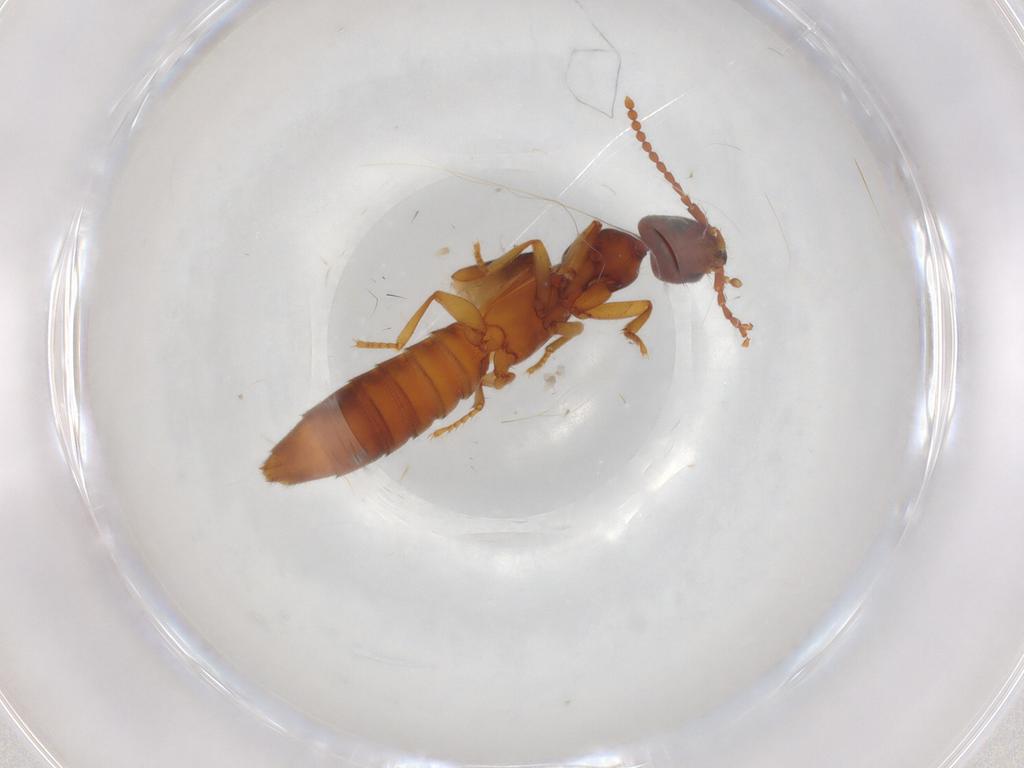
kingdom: Animalia
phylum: Arthropoda
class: Insecta
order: Coleoptera
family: Staphylinidae
